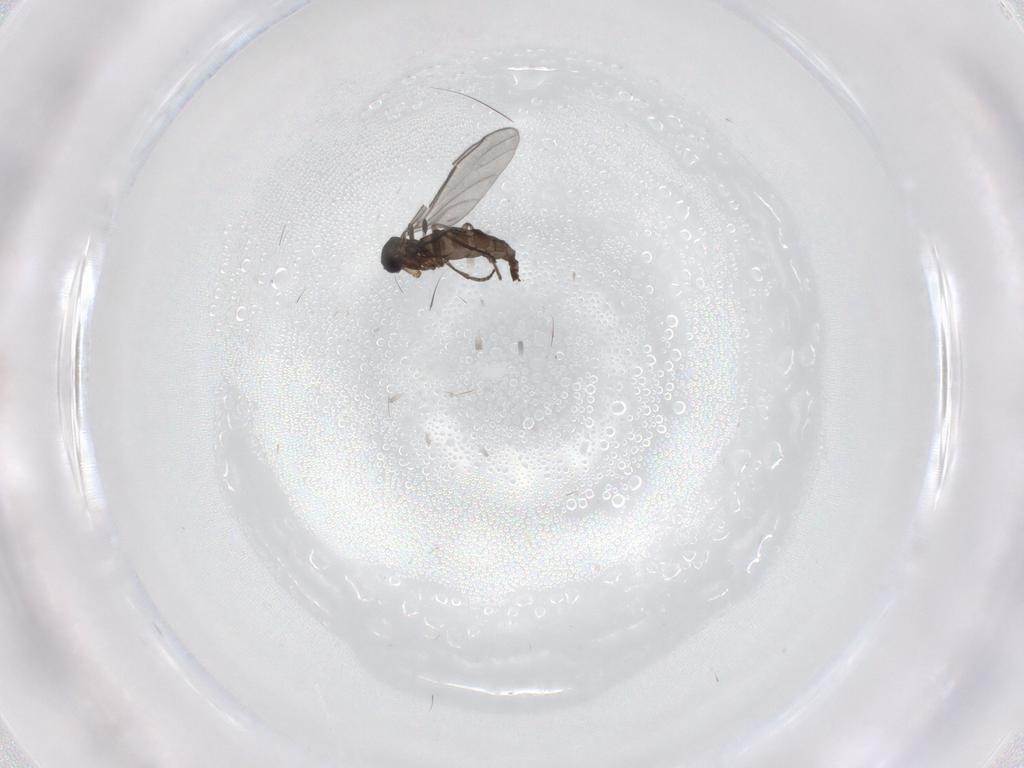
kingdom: Animalia
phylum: Arthropoda
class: Insecta
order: Diptera
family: Sciaridae
